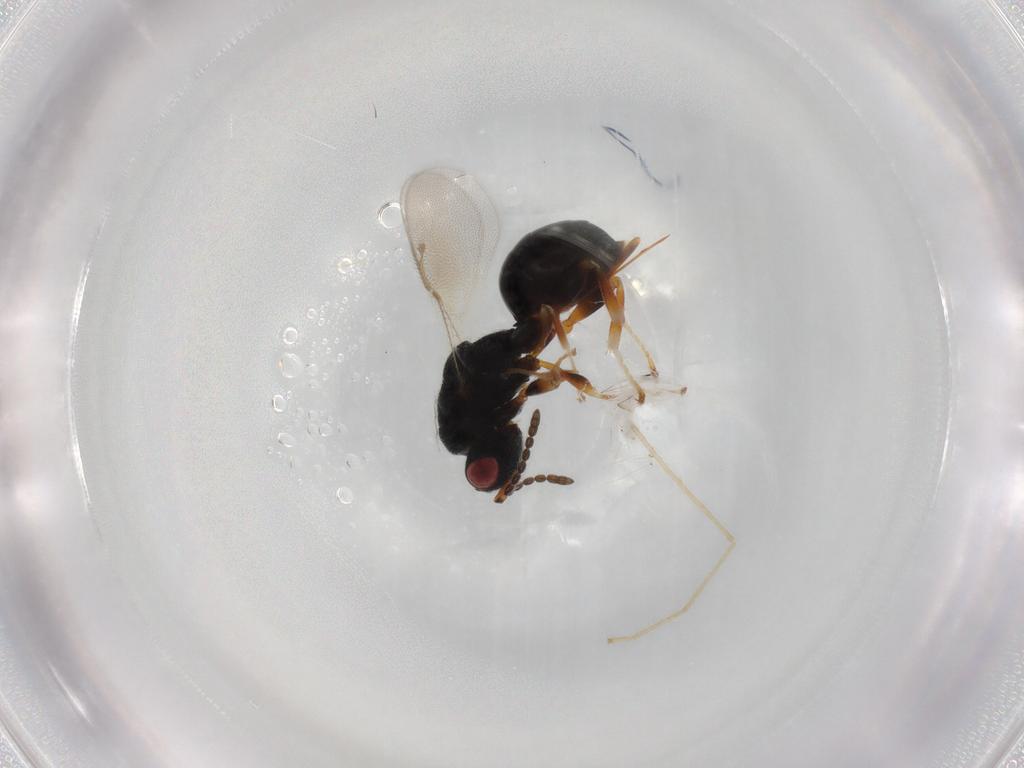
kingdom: Animalia
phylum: Arthropoda
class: Insecta
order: Hymenoptera
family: Eurytomidae
